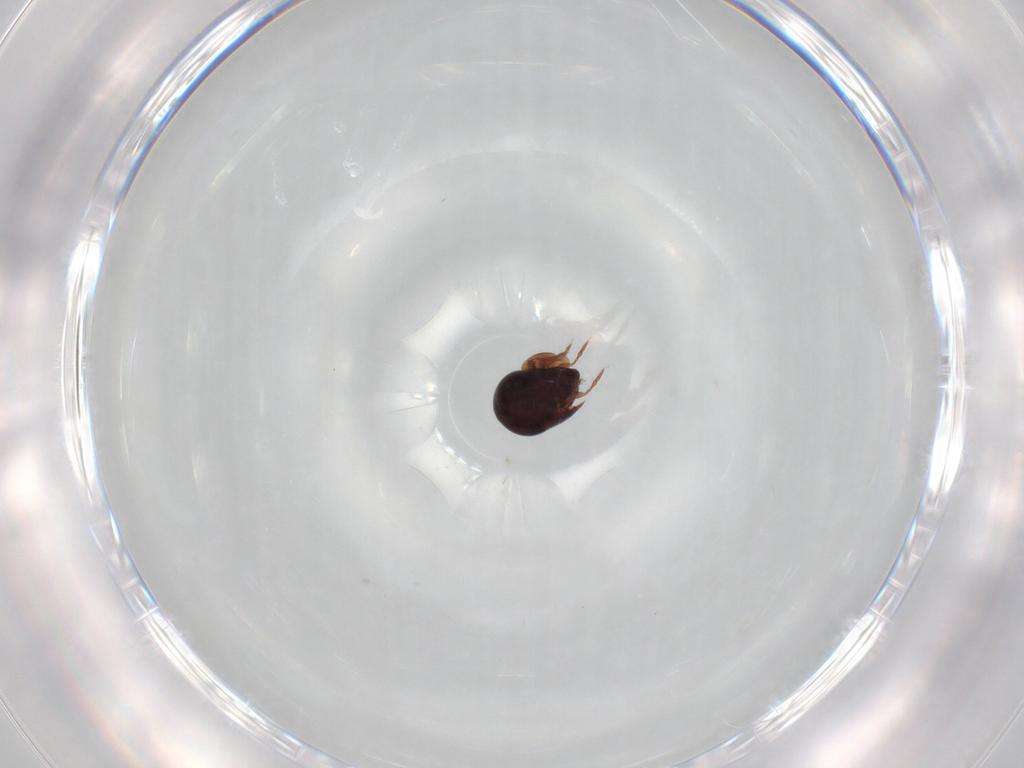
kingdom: Animalia
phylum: Arthropoda
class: Arachnida
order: Sarcoptiformes
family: Galumnidae
